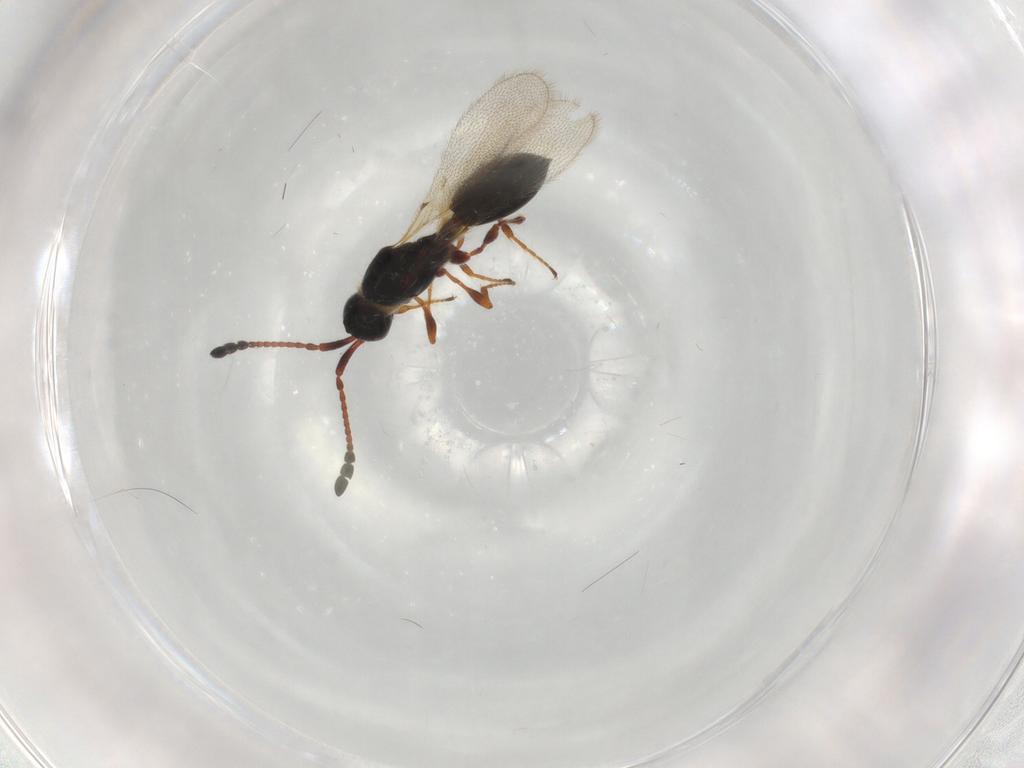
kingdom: Animalia
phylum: Arthropoda
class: Insecta
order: Hymenoptera
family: Diapriidae
